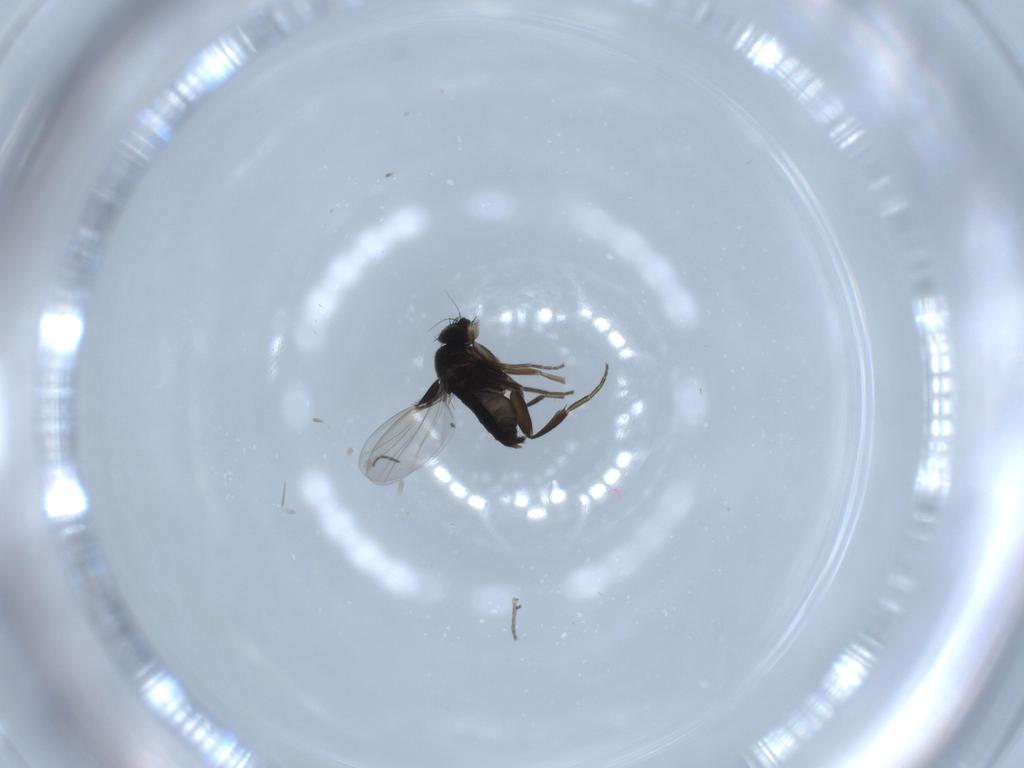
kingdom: Animalia
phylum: Arthropoda
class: Insecta
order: Diptera
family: Phoridae
